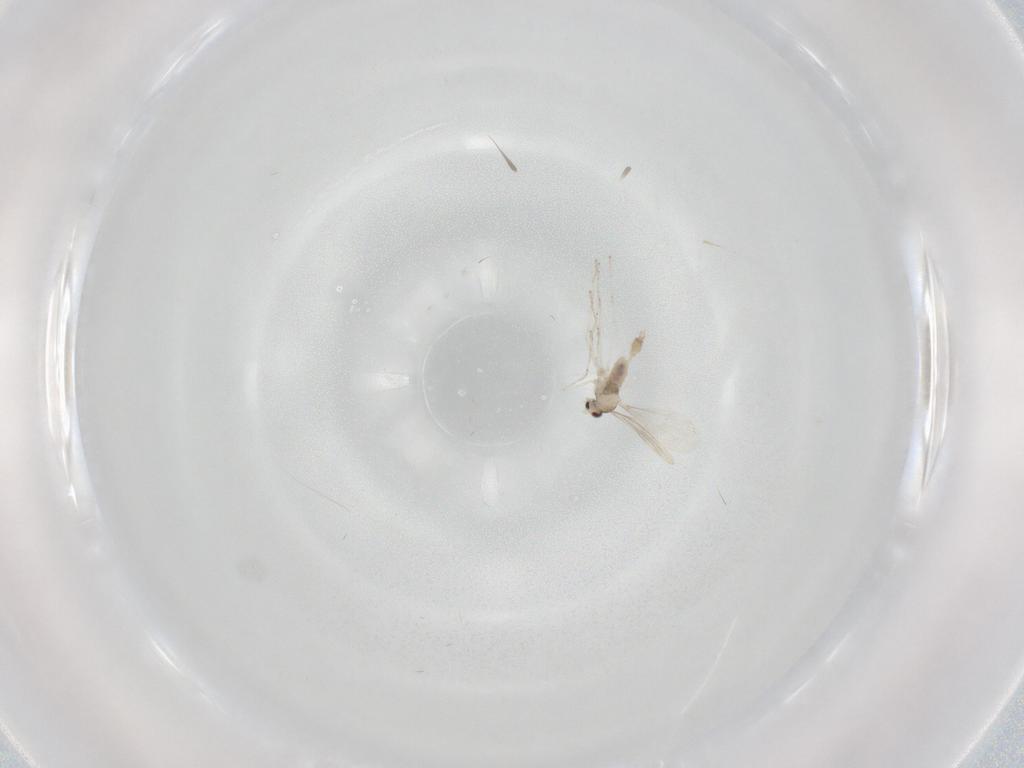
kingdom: Animalia
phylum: Arthropoda
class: Insecta
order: Diptera
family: Cecidomyiidae
